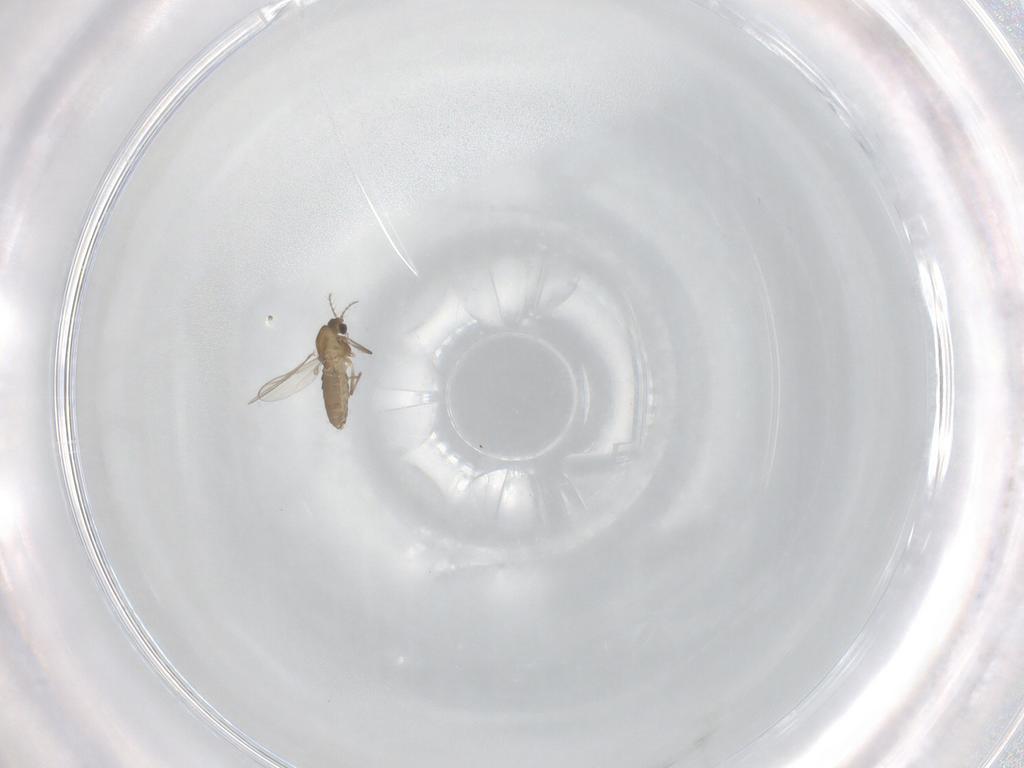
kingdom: Animalia
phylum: Arthropoda
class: Insecta
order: Diptera
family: Chironomidae
